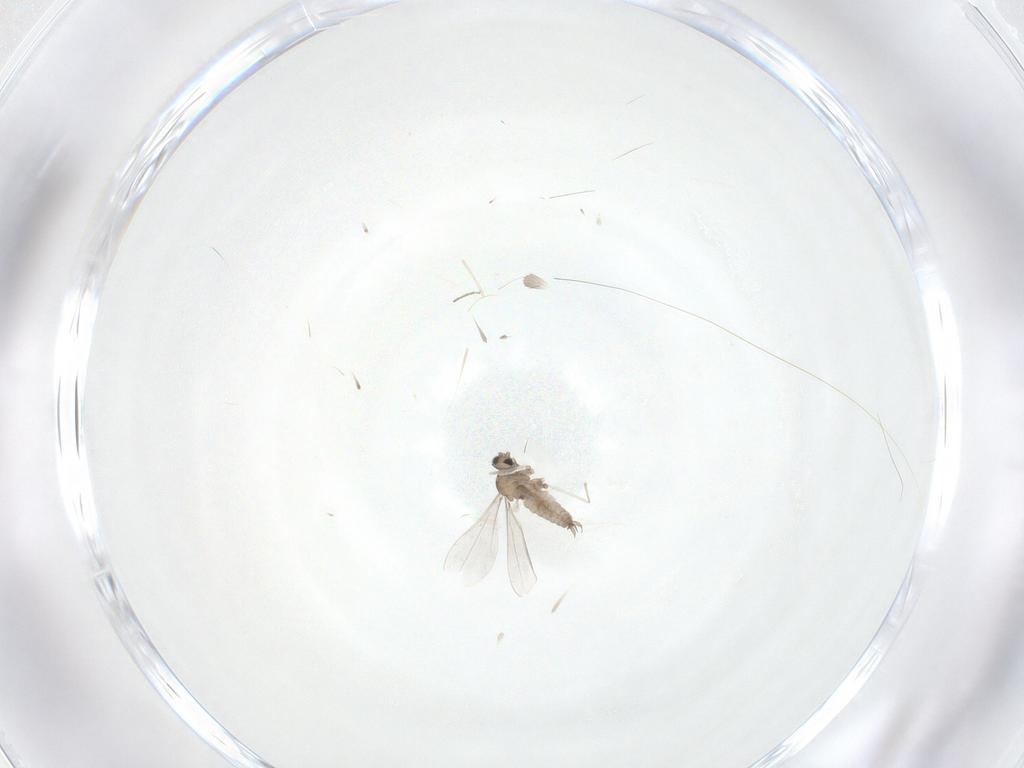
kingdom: Animalia
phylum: Arthropoda
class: Insecta
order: Diptera
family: Cecidomyiidae
